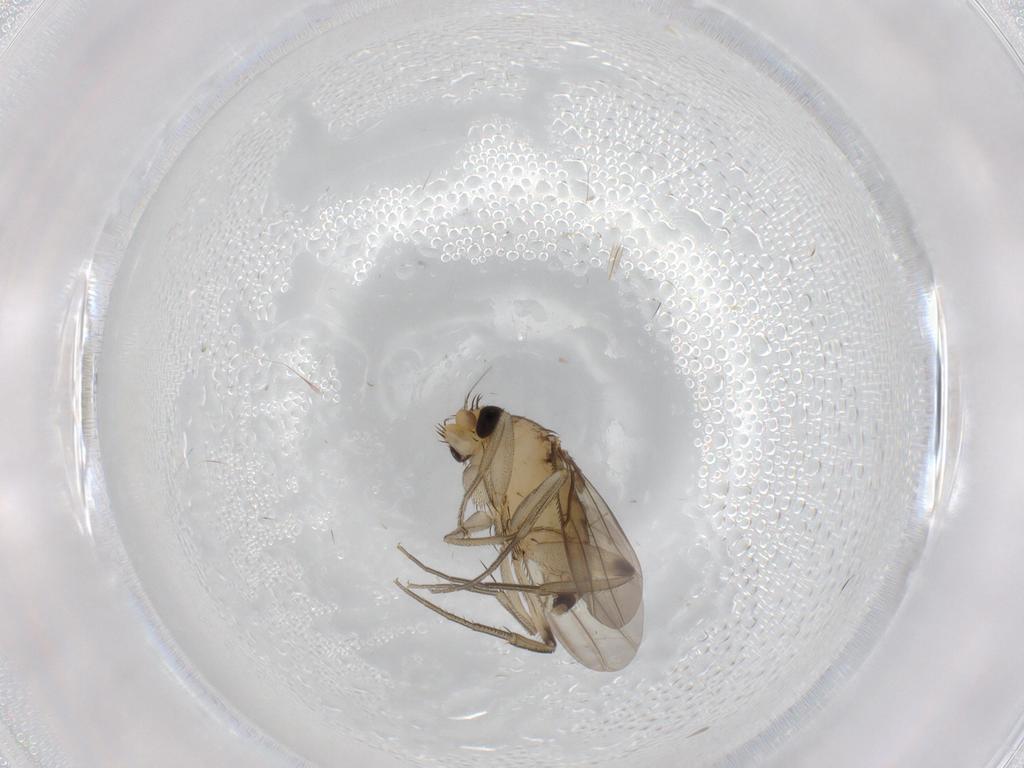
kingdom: Animalia
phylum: Arthropoda
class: Insecta
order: Diptera
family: Phoridae
